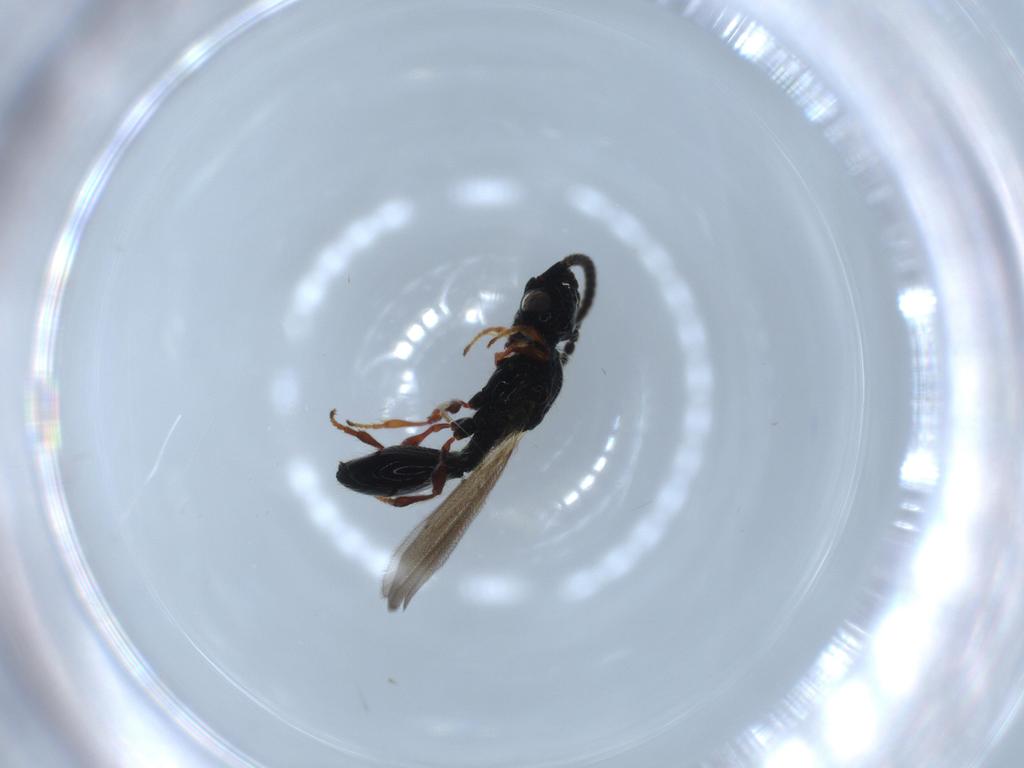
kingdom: Animalia
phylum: Arthropoda
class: Insecta
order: Hymenoptera
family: Diapriidae
